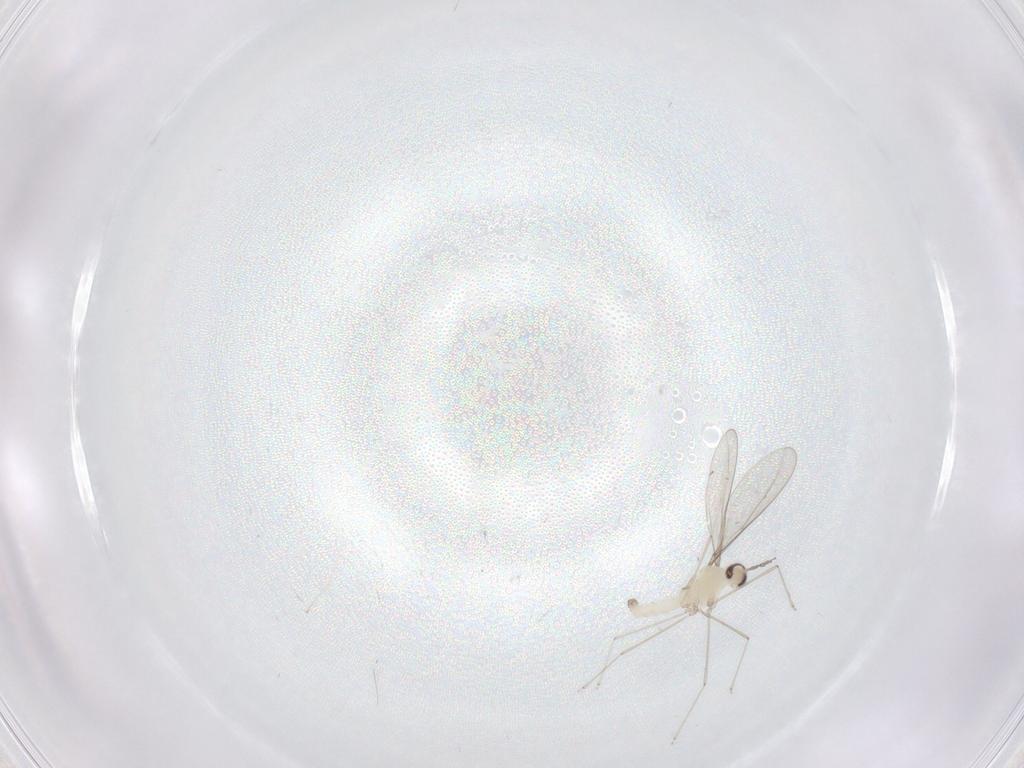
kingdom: Animalia
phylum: Arthropoda
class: Insecta
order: Diptera
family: Cecidomyiidae
